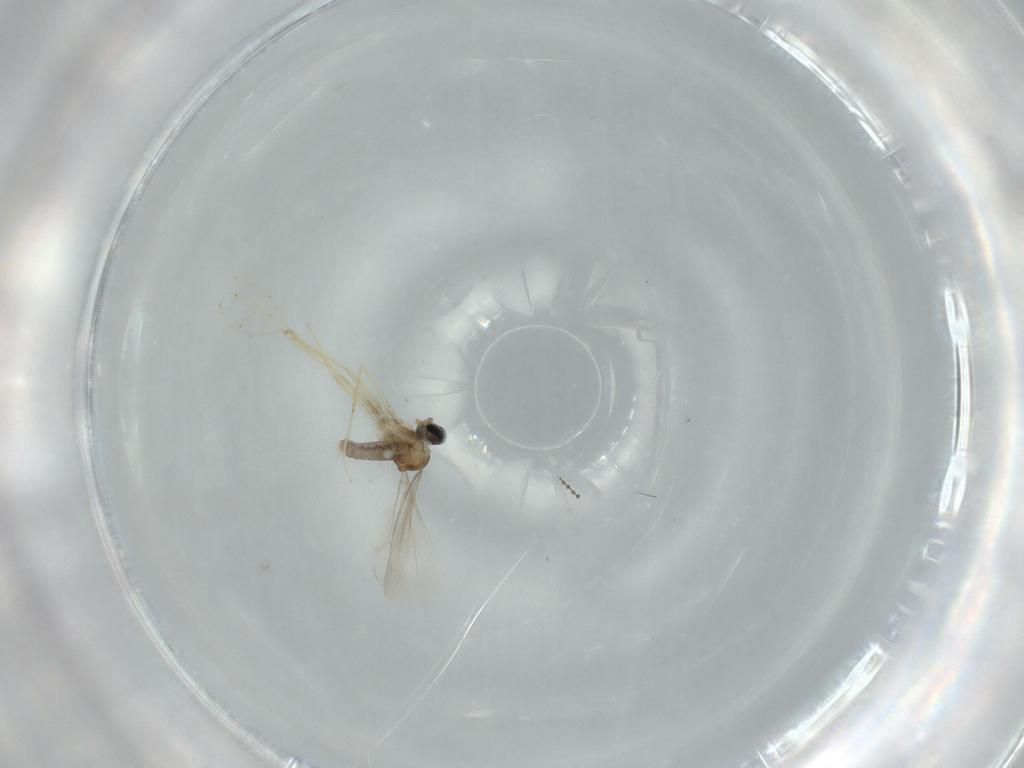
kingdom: Animalia
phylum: Arthropoda
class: Insecta
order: Diptera
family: Cecidomyiidae
